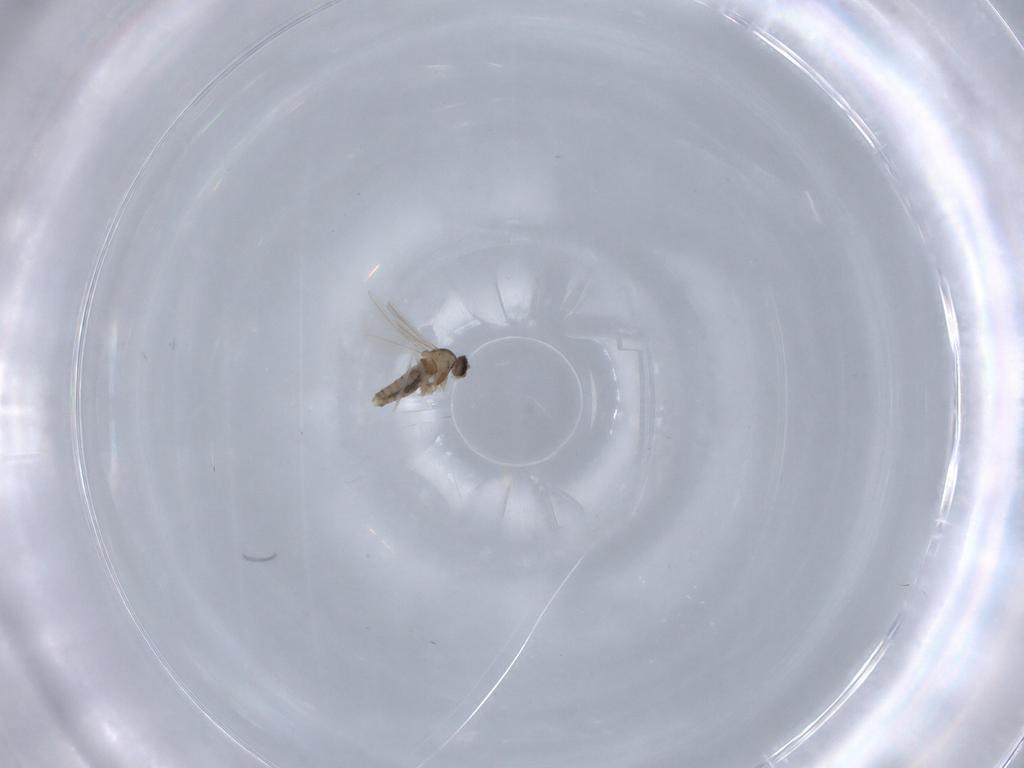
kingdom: Animalia
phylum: Arthropoda
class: Insecta
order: Diptera
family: Cecidomyiidae
